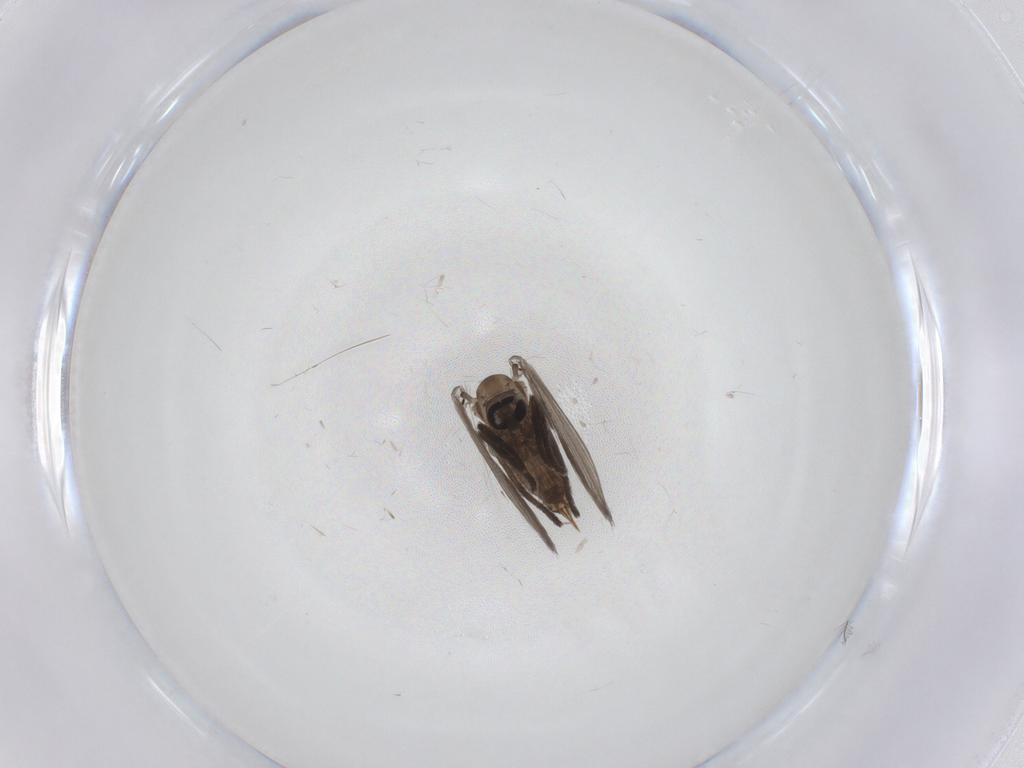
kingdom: Animalia
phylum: Arthropoda
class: Insecta
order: Diptera
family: Psychodidae
